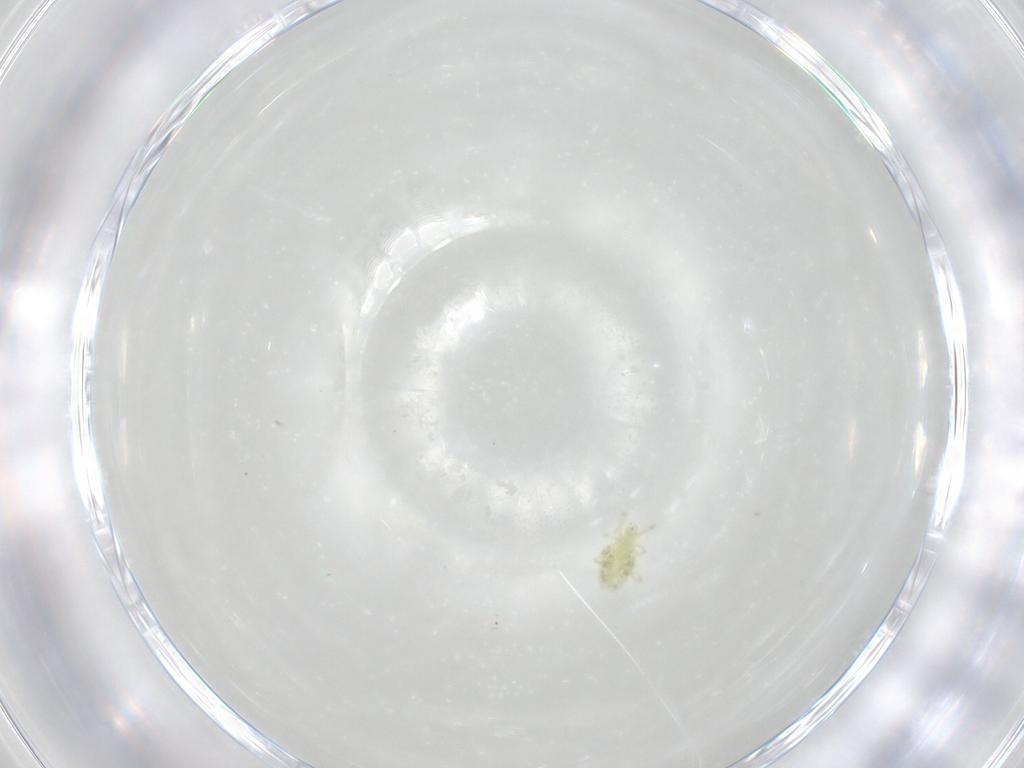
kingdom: Animalia
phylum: Arthropoda
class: Arachnida
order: Trombidiformes
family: Erythraeidae
